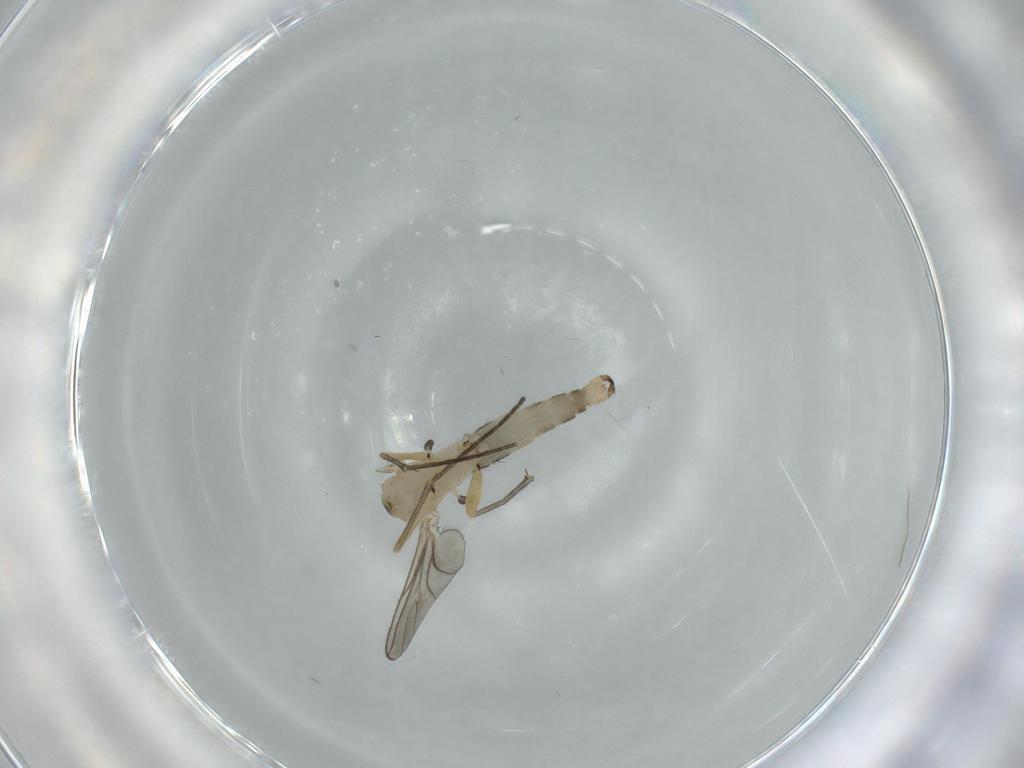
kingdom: Animalia
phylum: Arthropoda
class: Insecta
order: Diptera
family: Sciaridae
